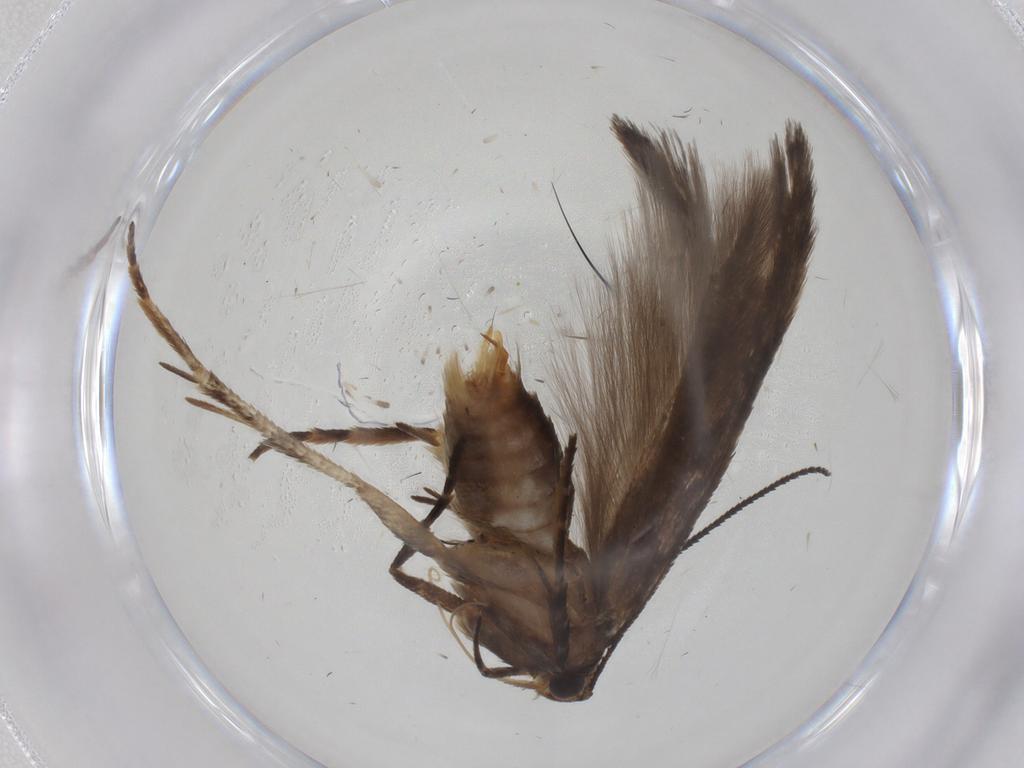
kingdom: Animalia
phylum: Arthropoda
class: Insecta
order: Lepidoptera
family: Gelechiidae
